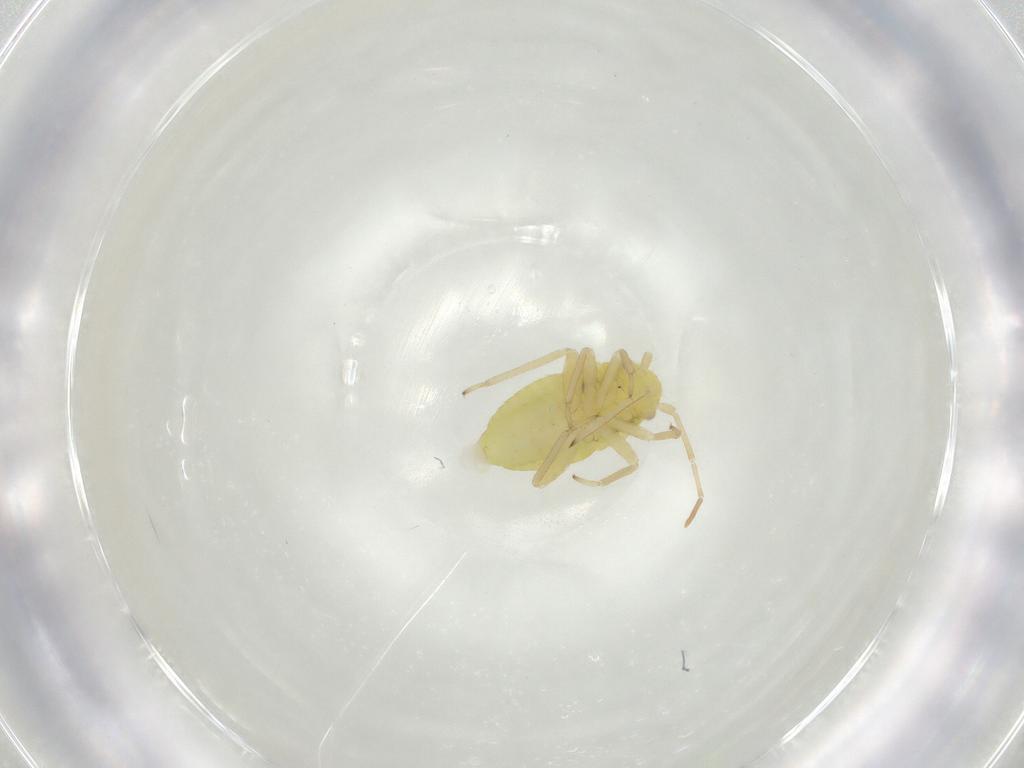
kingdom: Animalia
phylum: Arthropoda
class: Insecta
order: Hemiptera
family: Miridae
